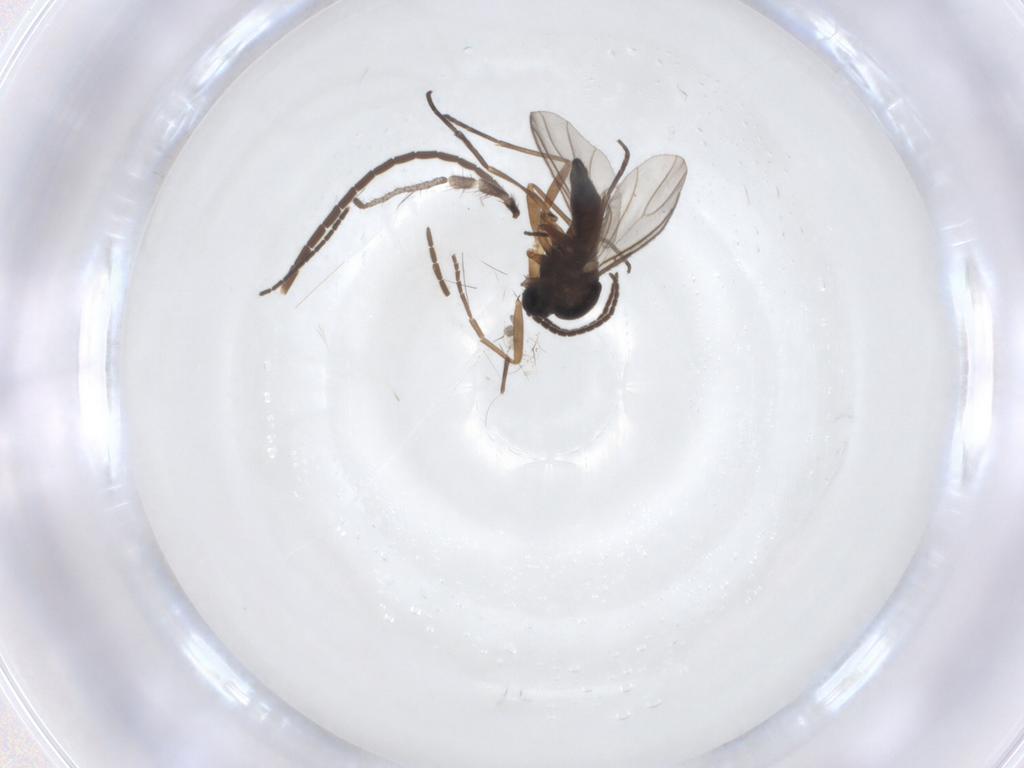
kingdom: Animalia
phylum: Arthropoda
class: Insecta
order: Diptera
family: Sciaridae
